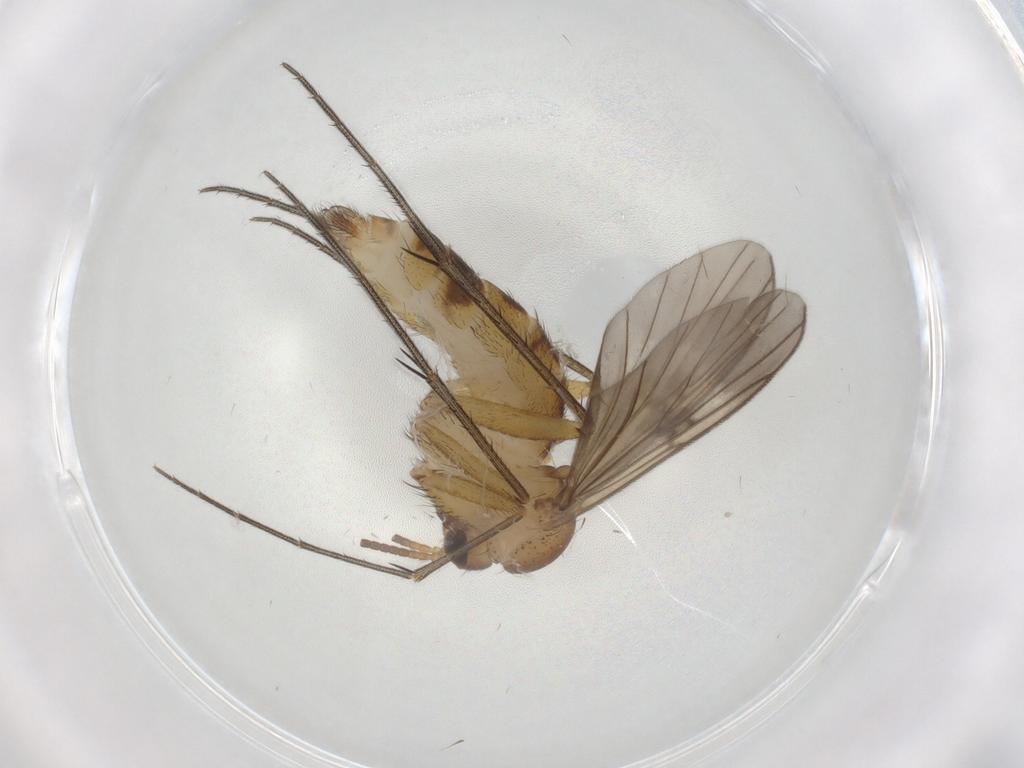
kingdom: Animalia
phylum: Arthropoda
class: Insecta
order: Diptera
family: Mycetophilidae
